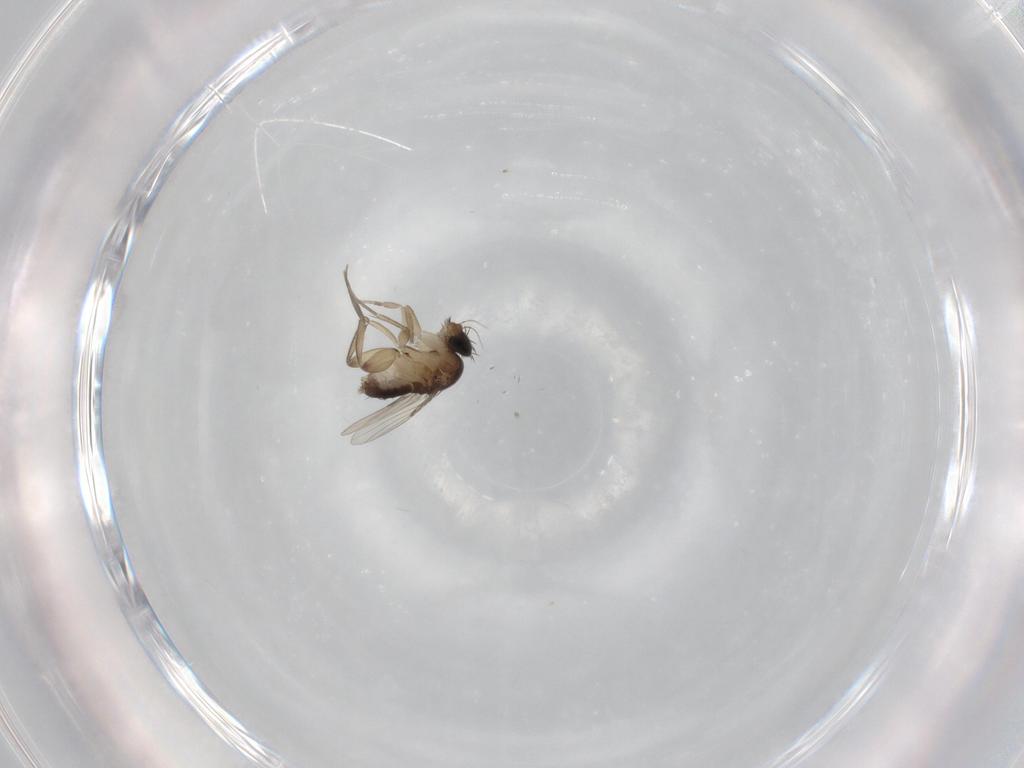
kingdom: Animalia
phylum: Arthropoda
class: Insecta
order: Diptera
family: Phoridae
